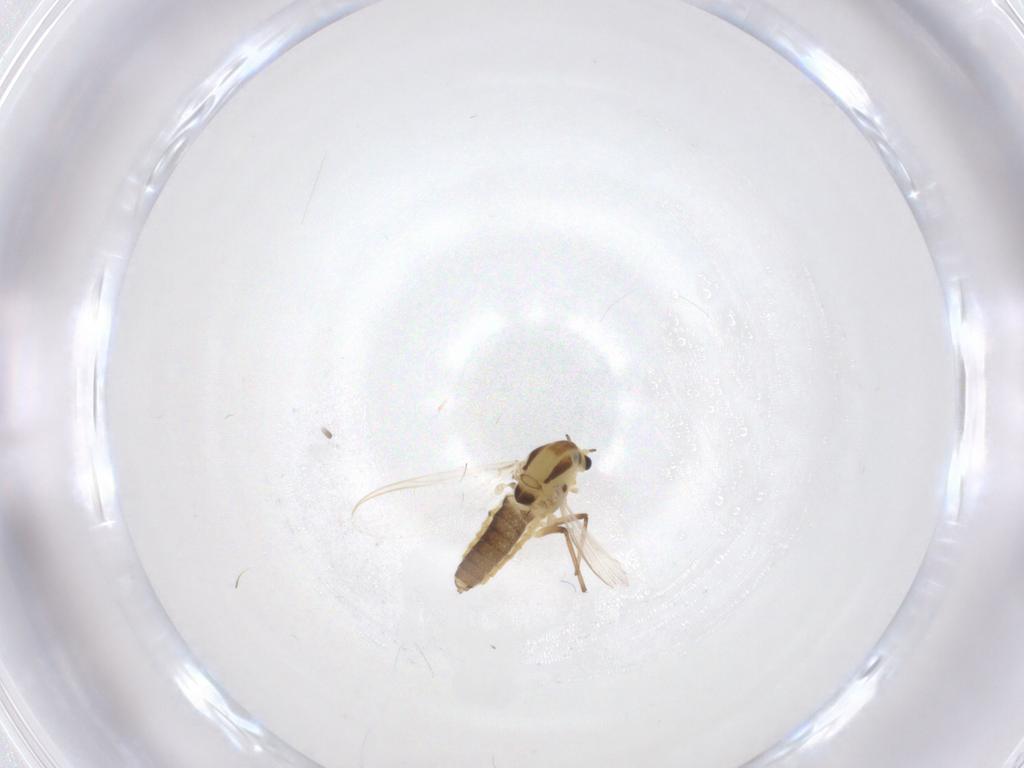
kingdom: Animalia
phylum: Arthropoda
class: Insecta
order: Diptera
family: Chironomidae
